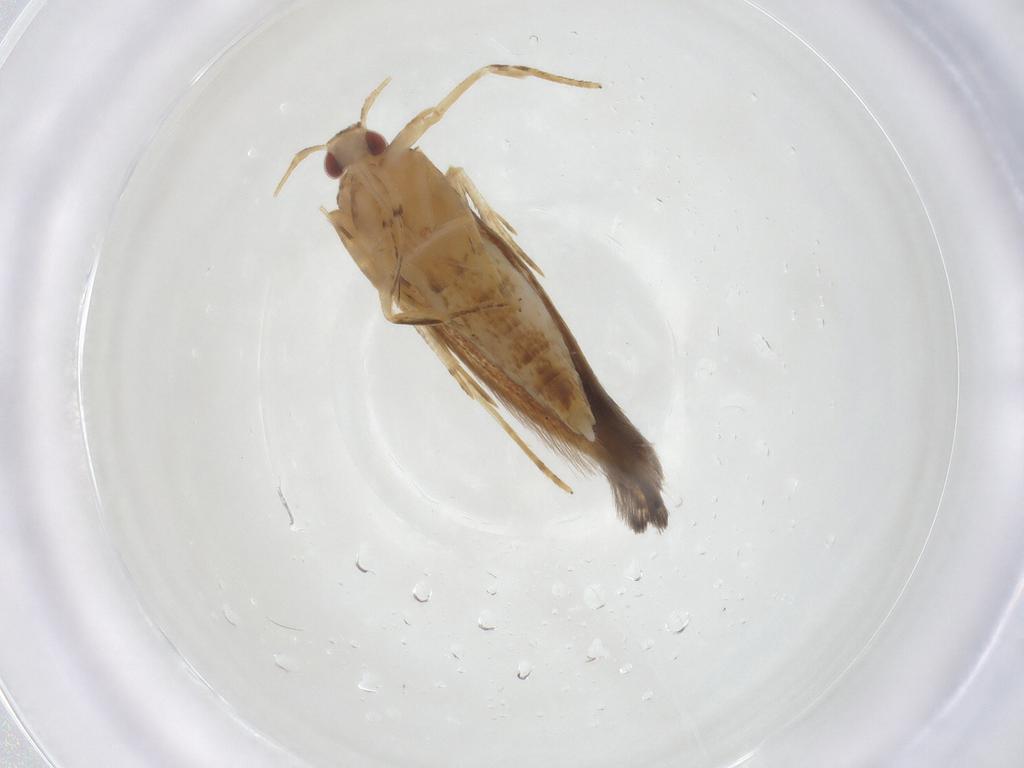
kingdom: Animalia
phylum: Arthropoda
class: Insecta
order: Lepidoptera
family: Cosmopterigidae
